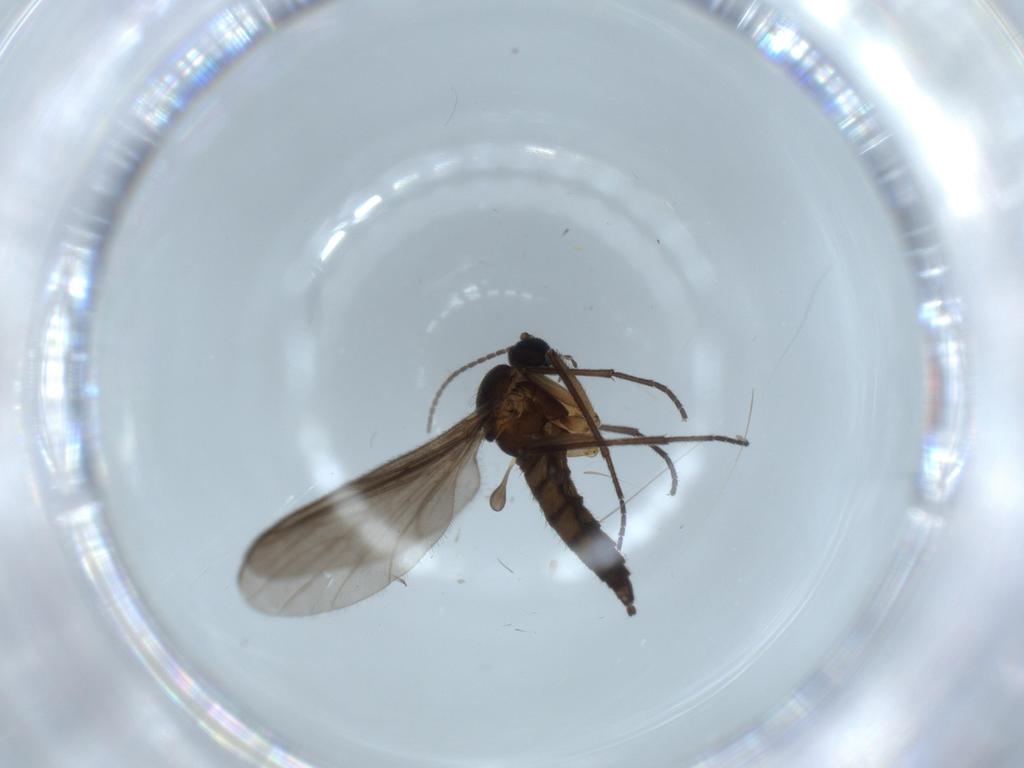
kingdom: Animalia
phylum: Arthropoda
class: Insecta
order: Diptera
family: Sciaridae
